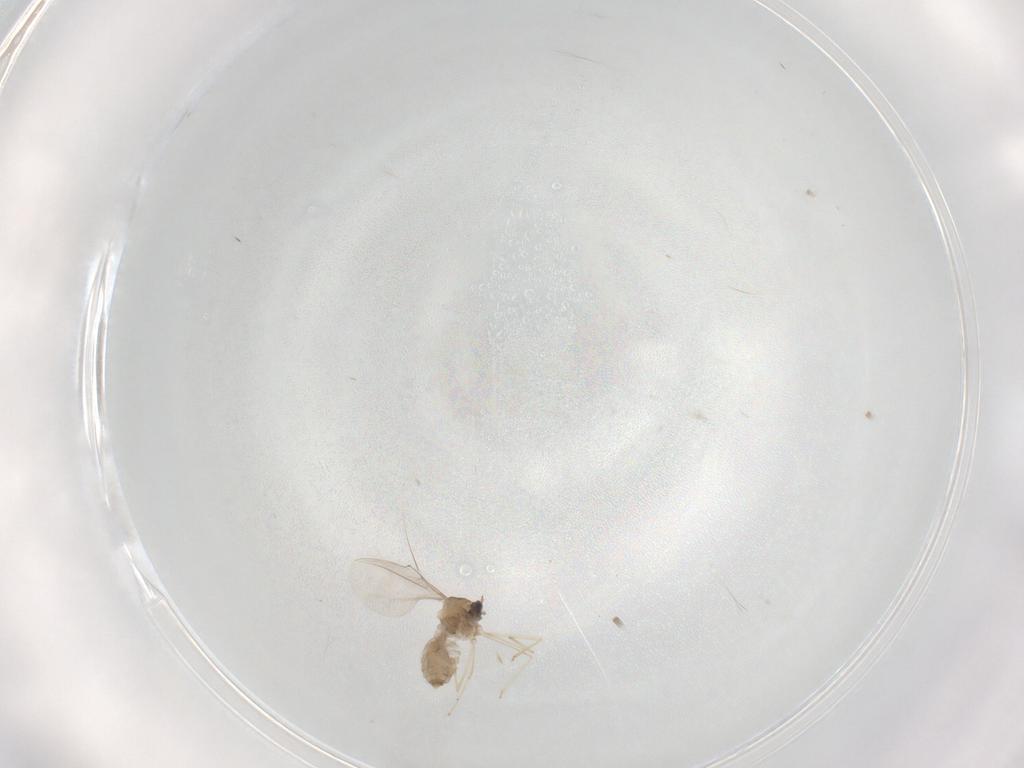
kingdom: Animalia
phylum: Arthropoda
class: Insecta
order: Diptera
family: Cecidomyiidae
